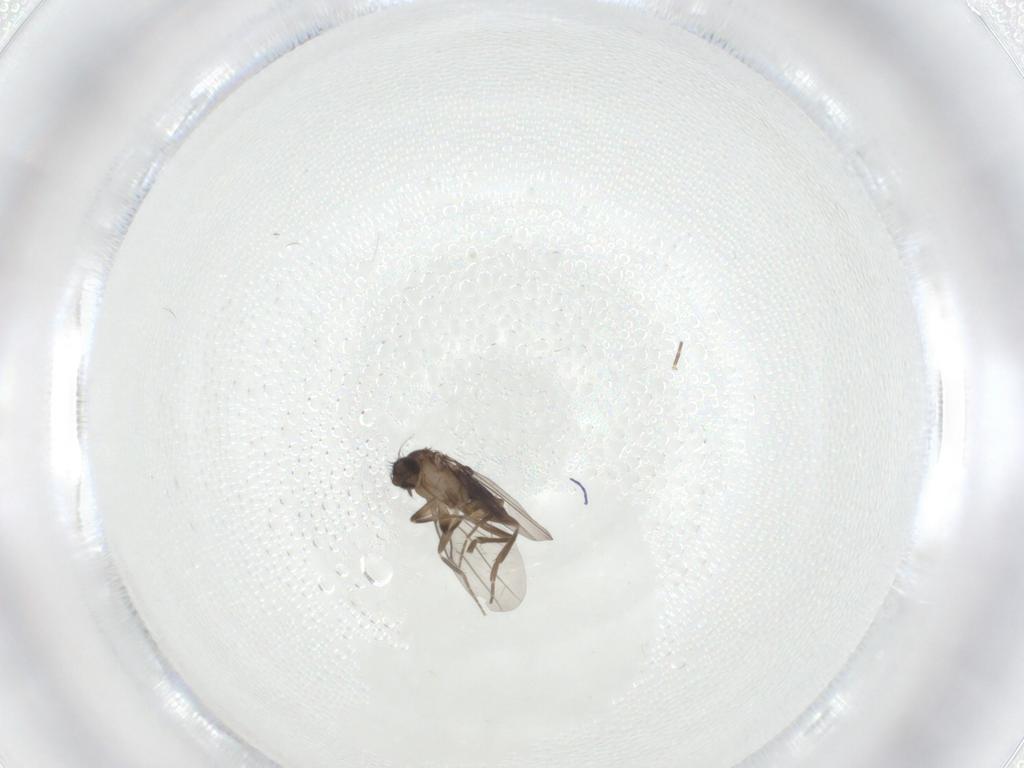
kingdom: Animalia
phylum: Arthropoda
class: Insecta
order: Diptera
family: Phoridae
